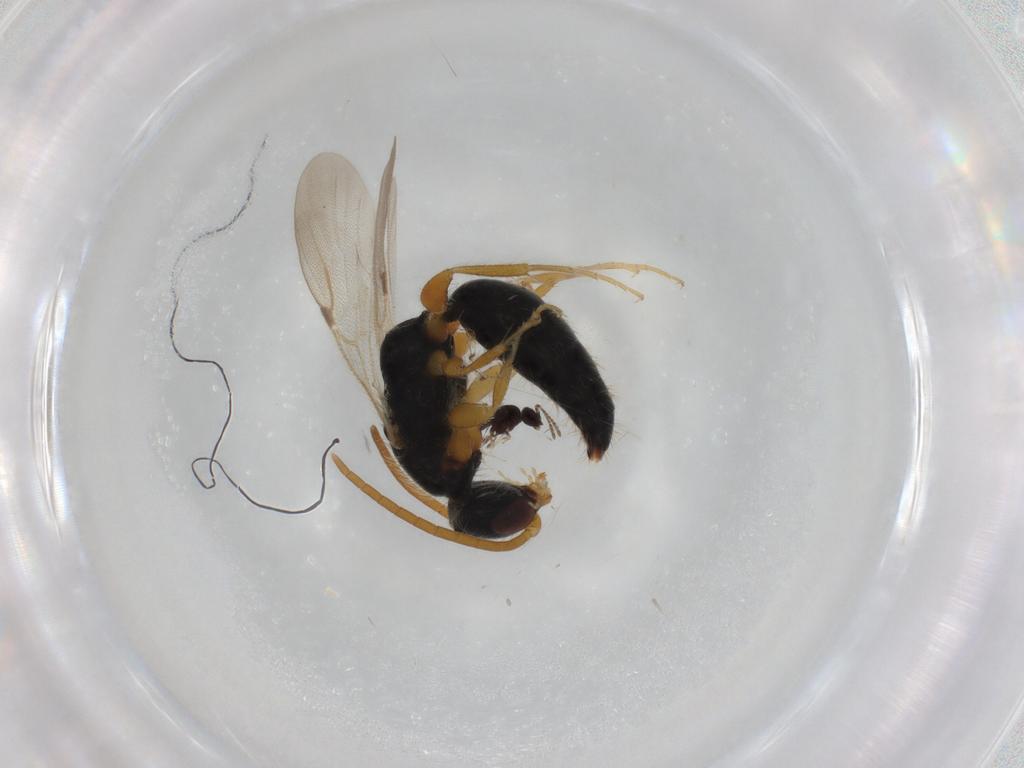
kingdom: Animalia
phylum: Arthropoda
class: Insecta
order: Hymenoptera
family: Bethylidae
